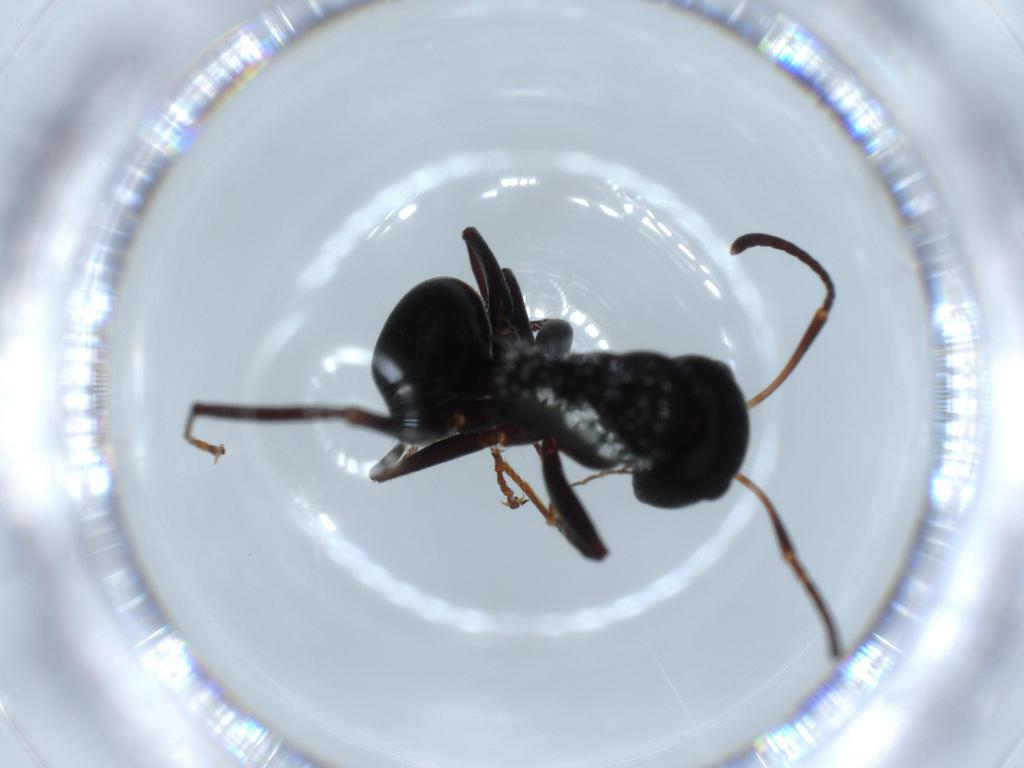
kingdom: Animalia
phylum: Arthropoda
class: Insecta
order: Hymenoptera
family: Formicidae
